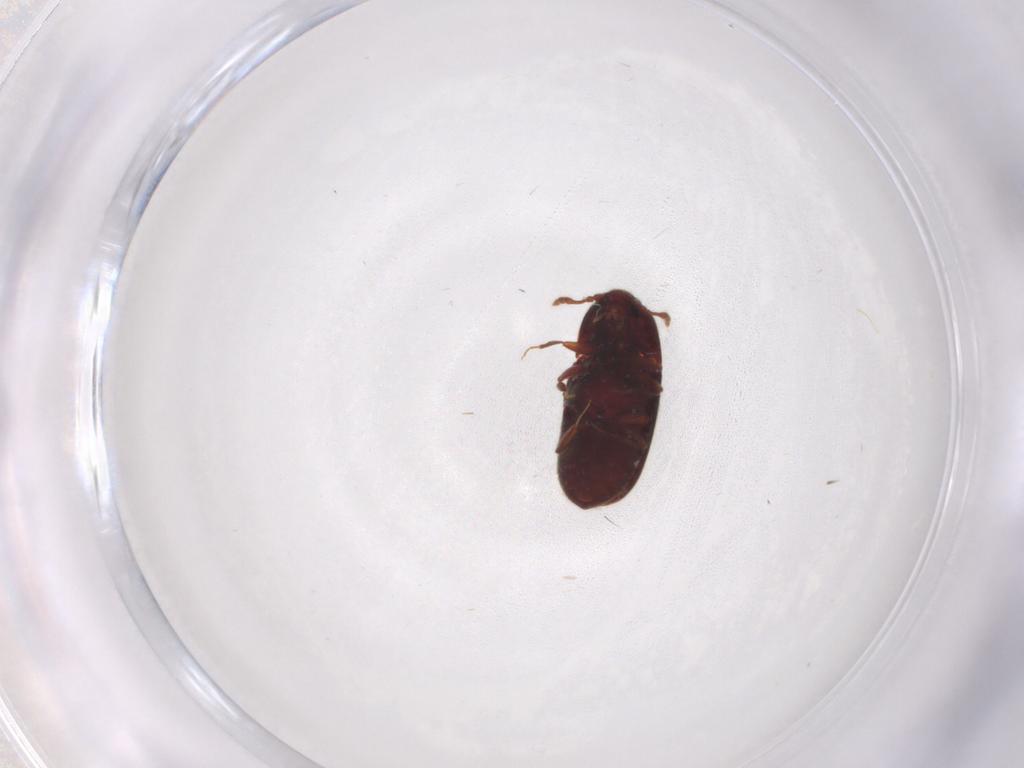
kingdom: Animalia
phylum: Arthropoda
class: Insecta
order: Coleoptera
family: Throscidae
